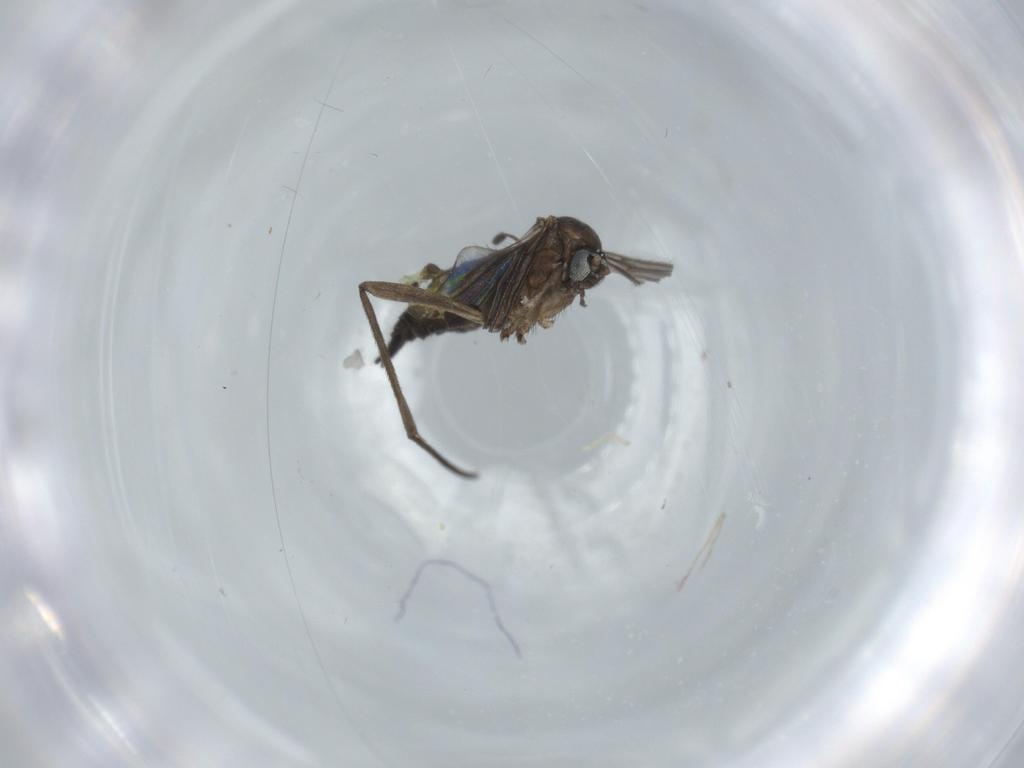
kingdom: Animalia
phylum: Arthropoda
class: Insecta
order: Diptera
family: Sciaridae
